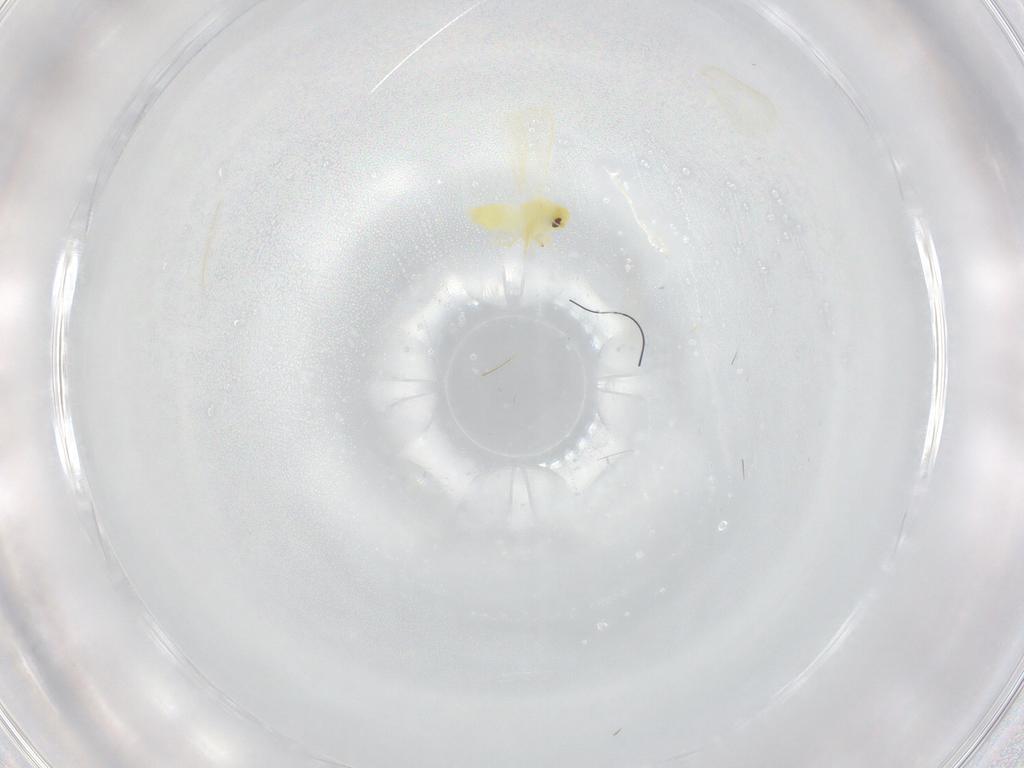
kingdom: Animalia
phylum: Arthropoda
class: Insecta
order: Hemiptera
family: Aleyrodidae
